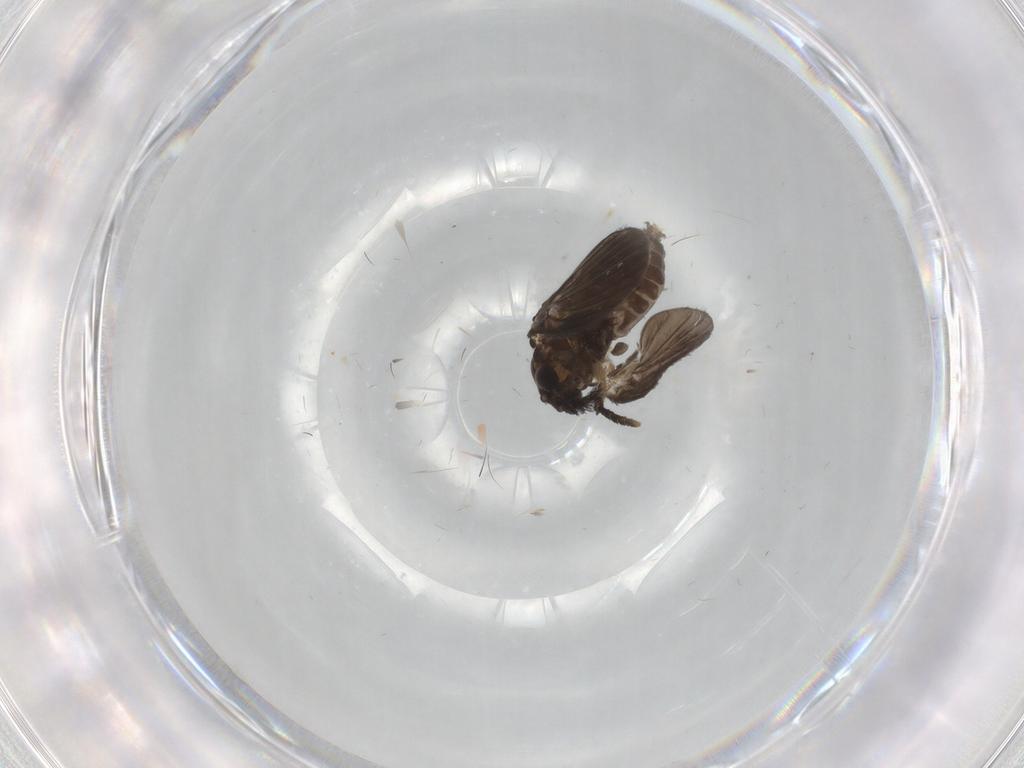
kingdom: Animalia
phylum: Arthropoda
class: Insecta
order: Diptera
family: Psychodidae
